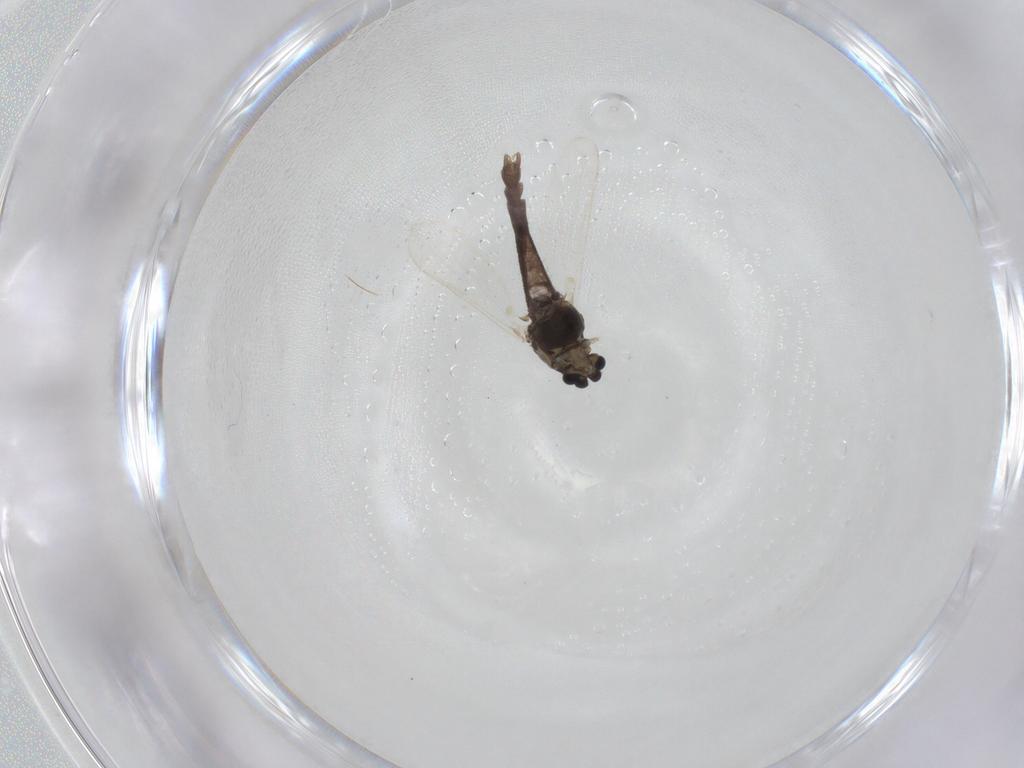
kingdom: Animalia
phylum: Arthropoda
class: Insecta
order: Diptera
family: Chironomidae
